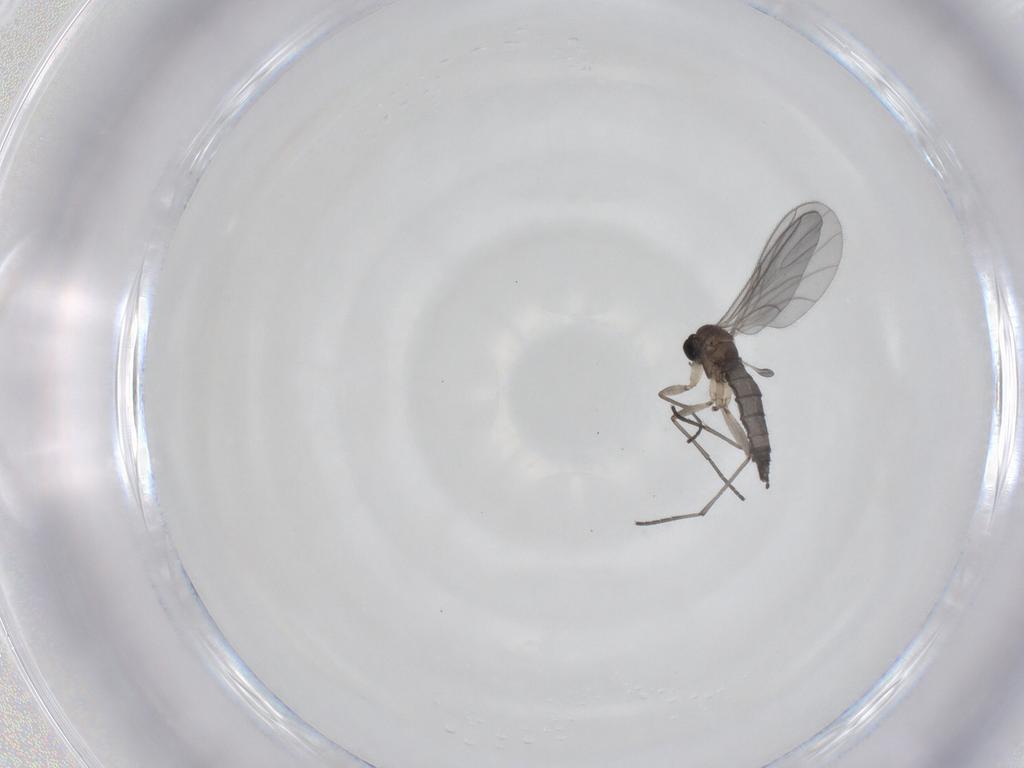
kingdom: Animalia
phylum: Arthropoda
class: Insecta
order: Diptera
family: Sciaridae
